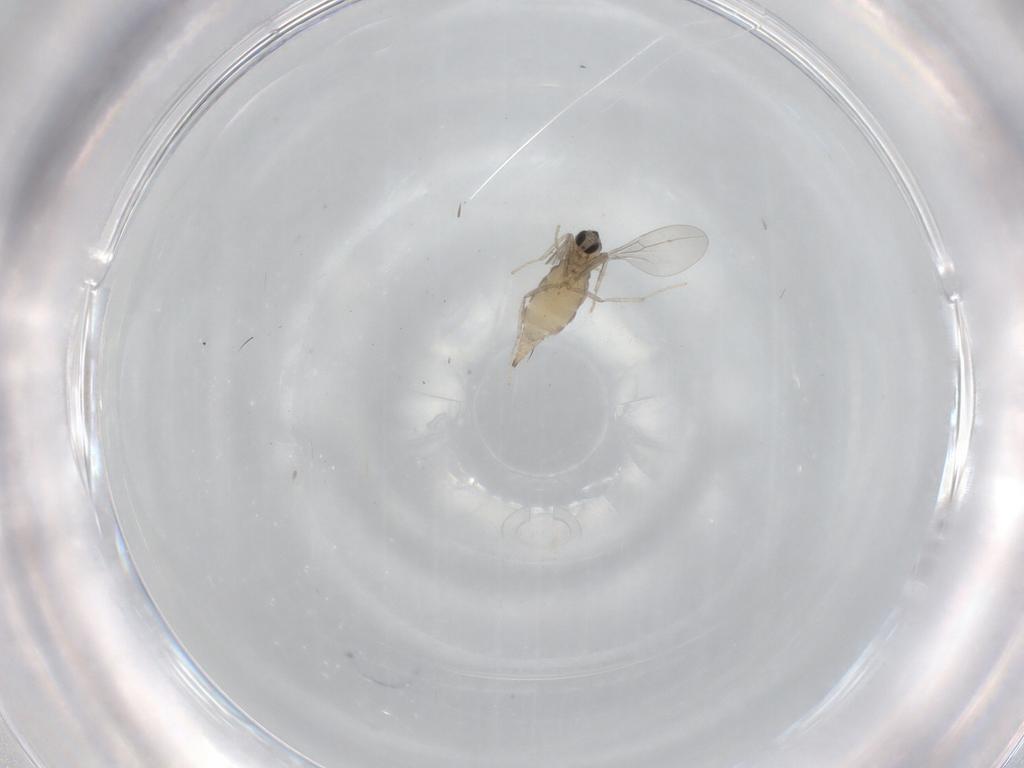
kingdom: Animalia
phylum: Arthropoda
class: Insecta
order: Diptera
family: Cecidomyiidae
